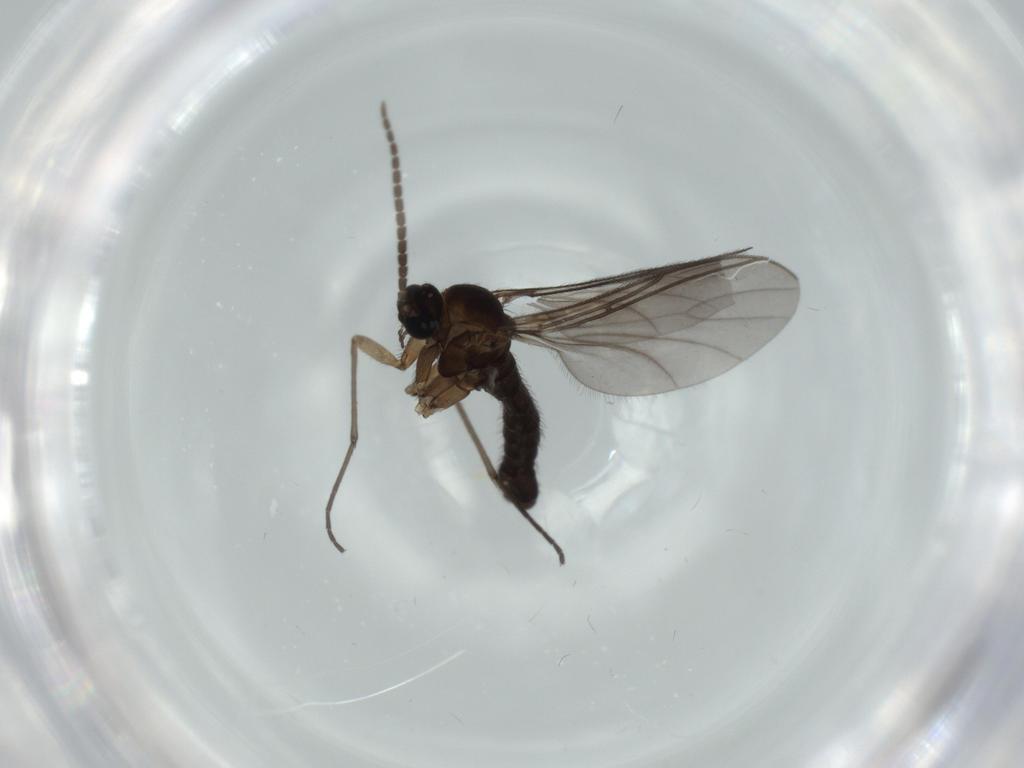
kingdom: Animalia
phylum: Arthropoda
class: Insecta
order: Diptera
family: Sciaridae
